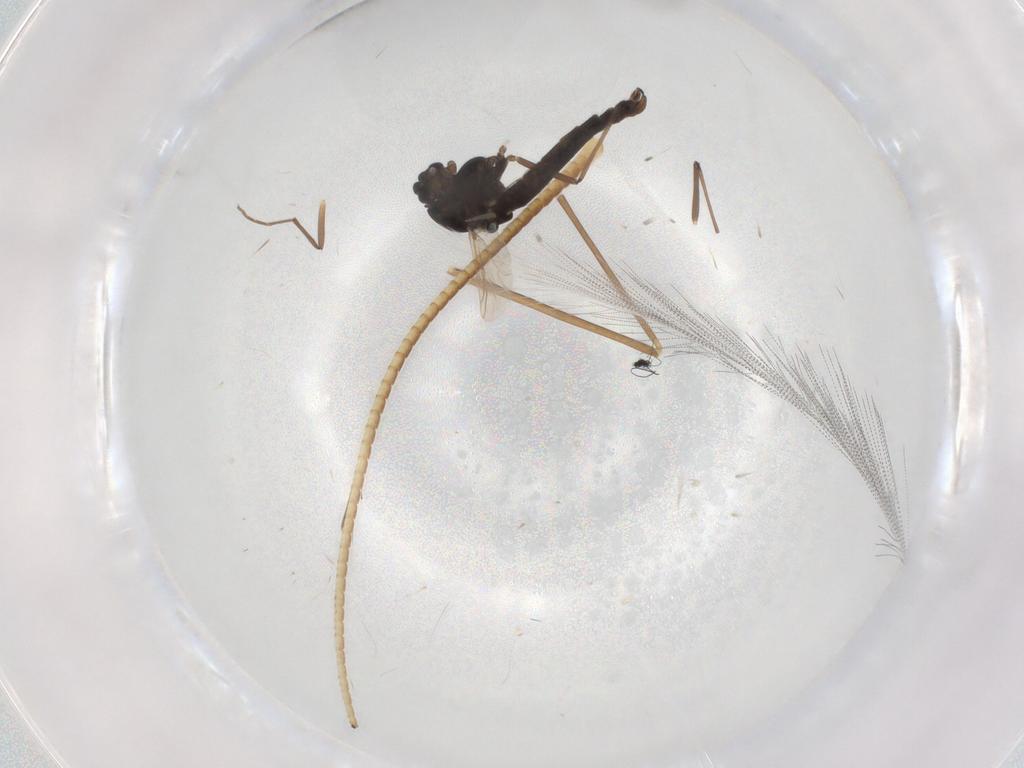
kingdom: Animalia
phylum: Arthropoda
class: Insecta
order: Diptera
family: Chironomidae
